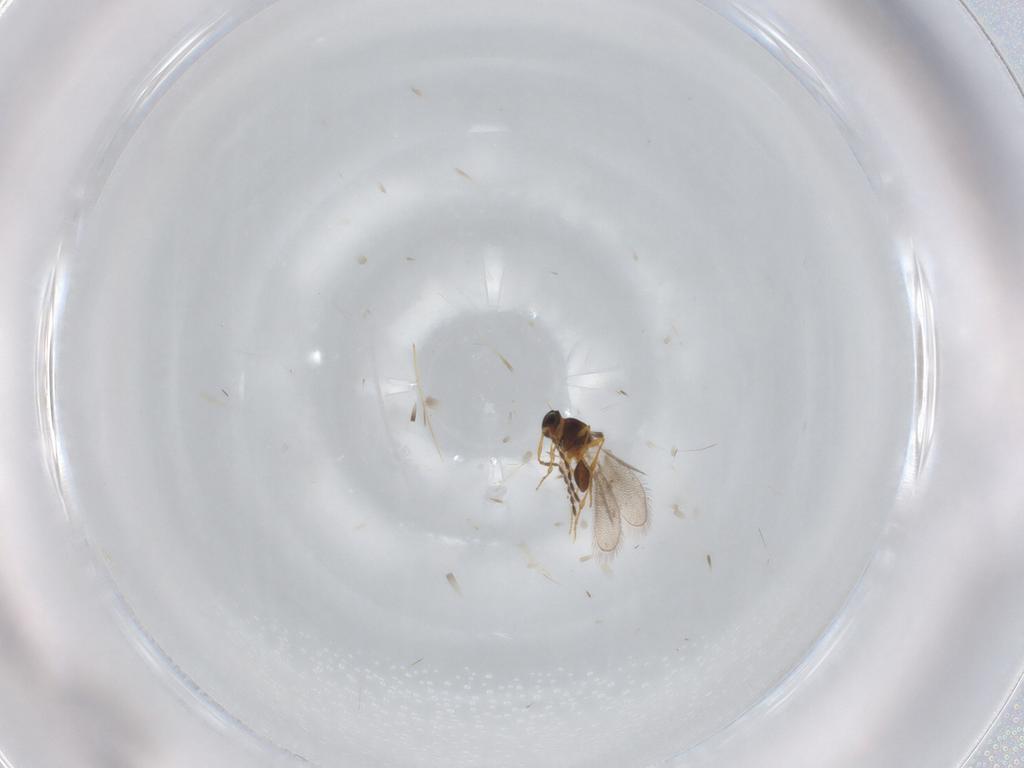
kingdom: Animalia
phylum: Arthropoda
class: Insecta
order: Hymenoptera
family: Platygastridae
